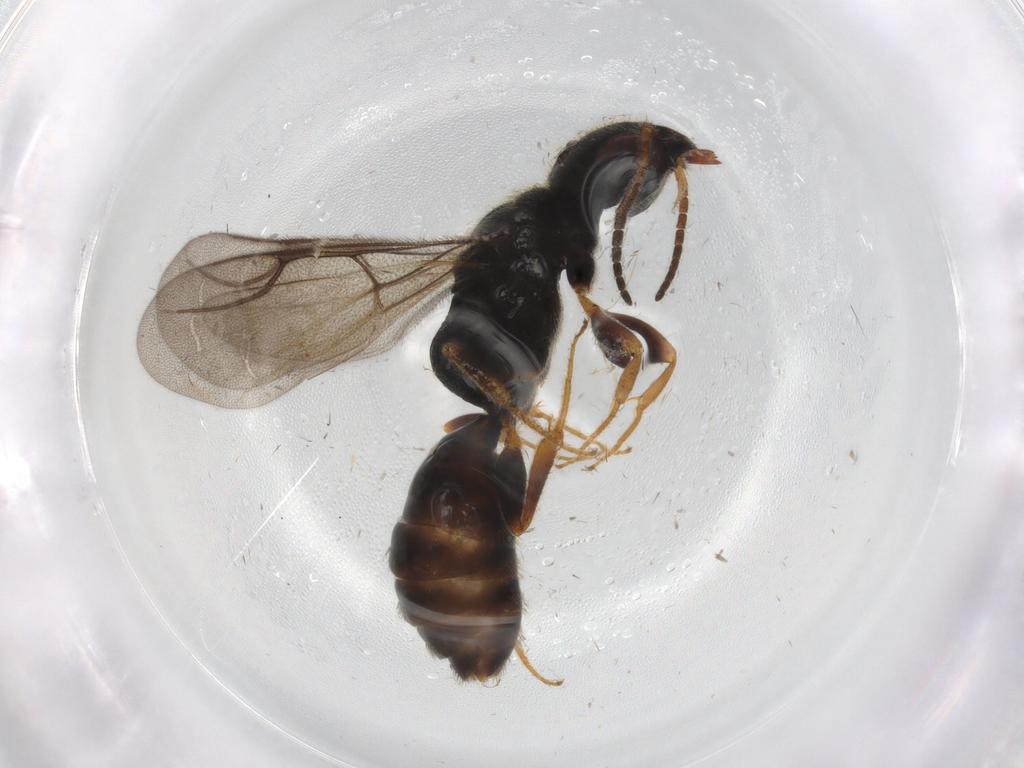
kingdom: Animalia
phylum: Arthropoda
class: Insecta
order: Hymenoptera
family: Bethylidae
